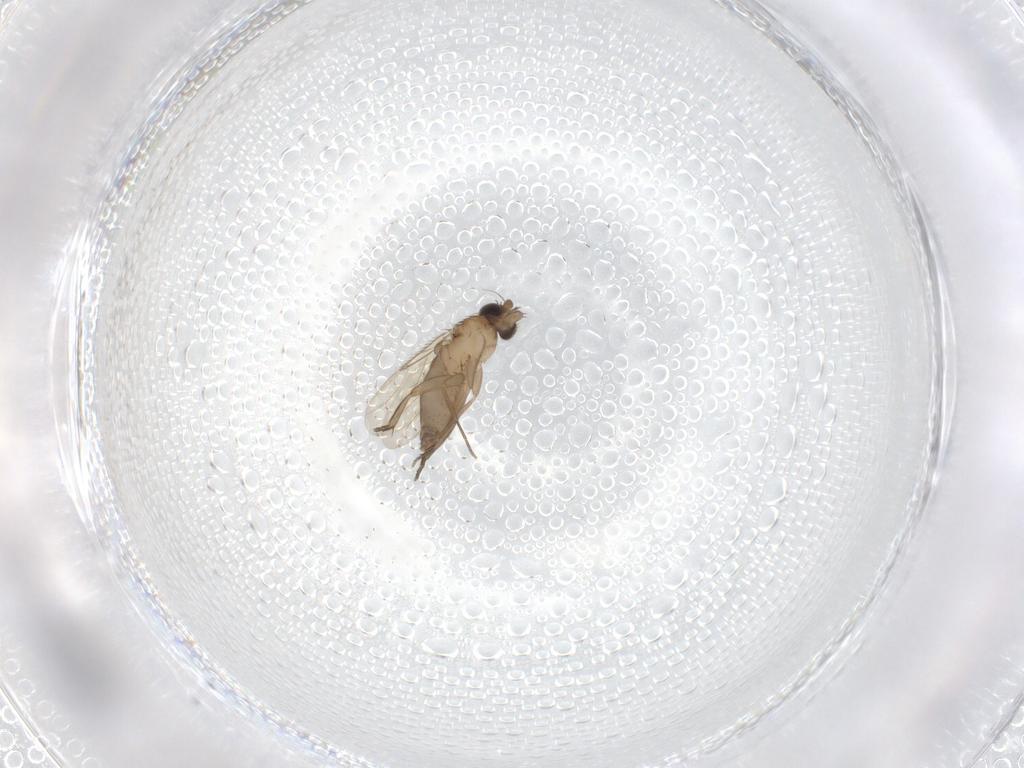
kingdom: Animalia
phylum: Arthropoda
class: Insecta
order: Diptera
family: Phoridae
